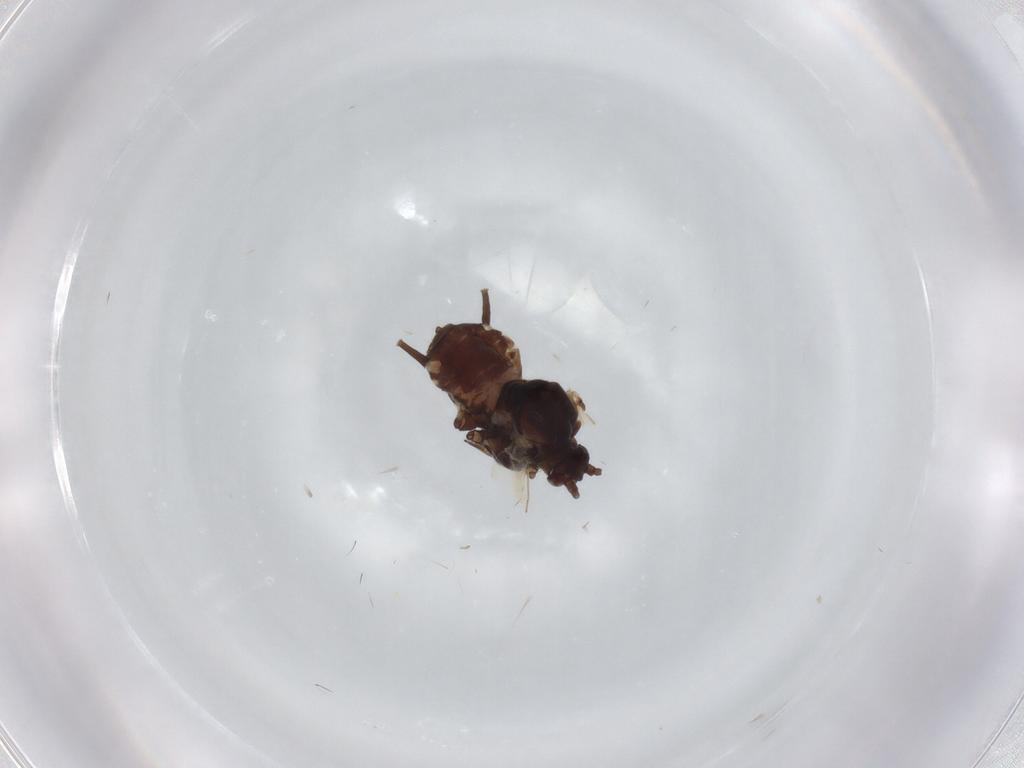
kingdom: Animalia
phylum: Arthropoda
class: Insecta
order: Hemiptera
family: Aphididae
